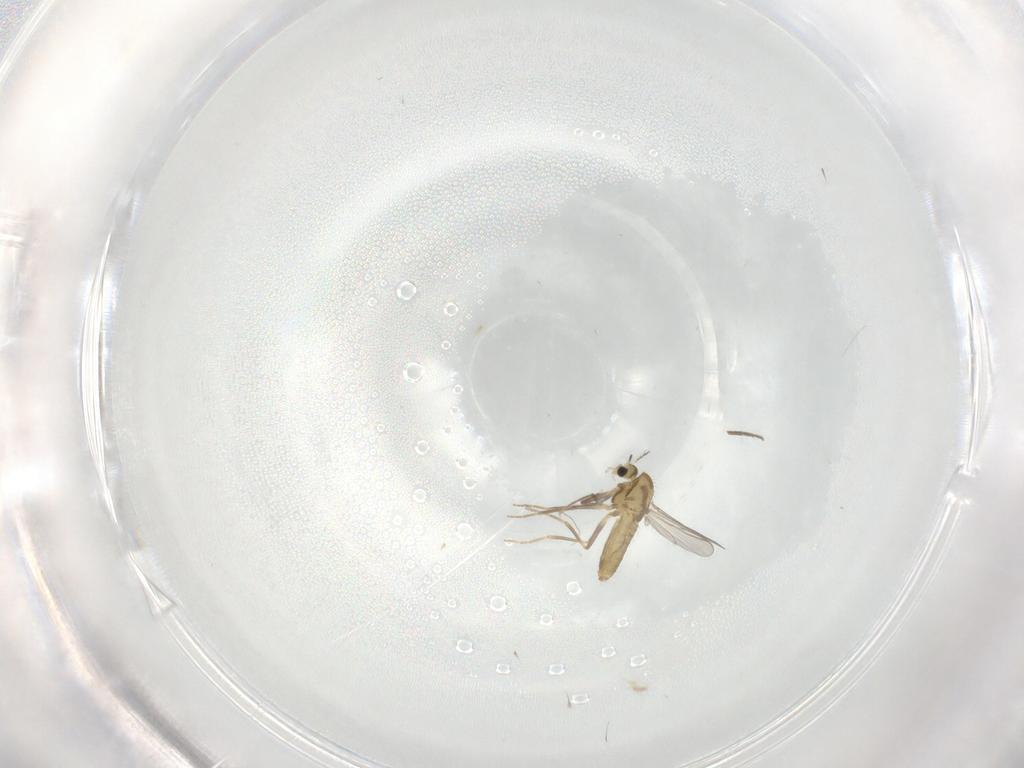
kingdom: Animalia
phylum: Arthropoda
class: Insecta
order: Diptera
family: Chironomidae
